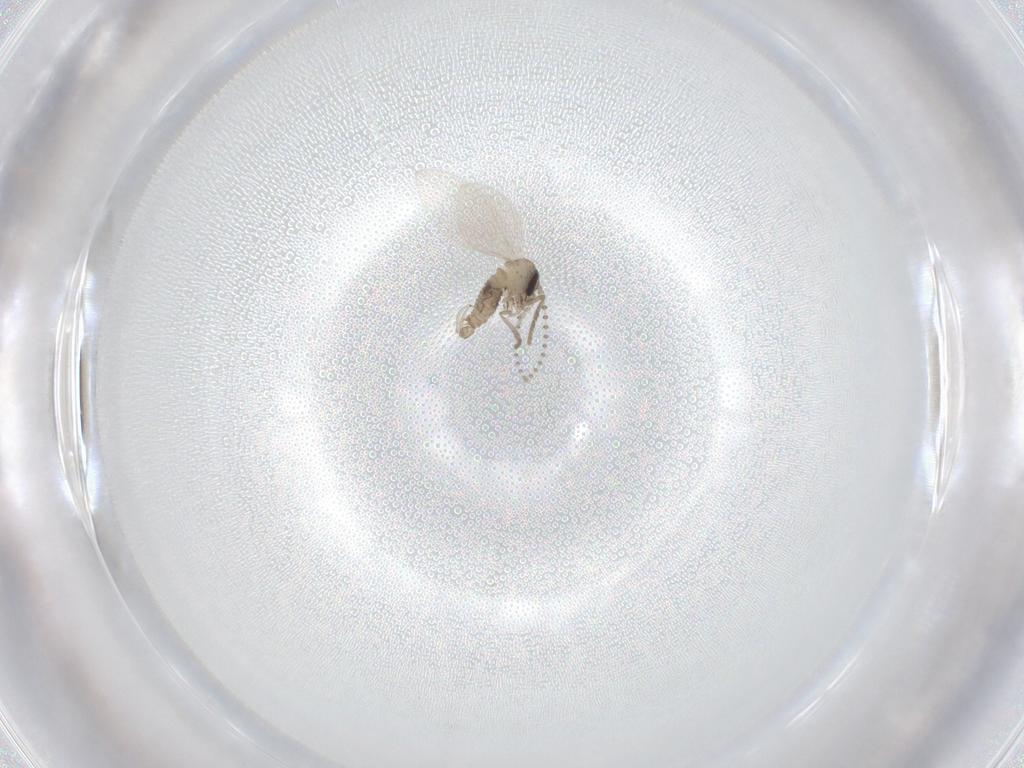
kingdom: Animalia
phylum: Arthropoda
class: Insecta
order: Diptera
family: Psychodidae
